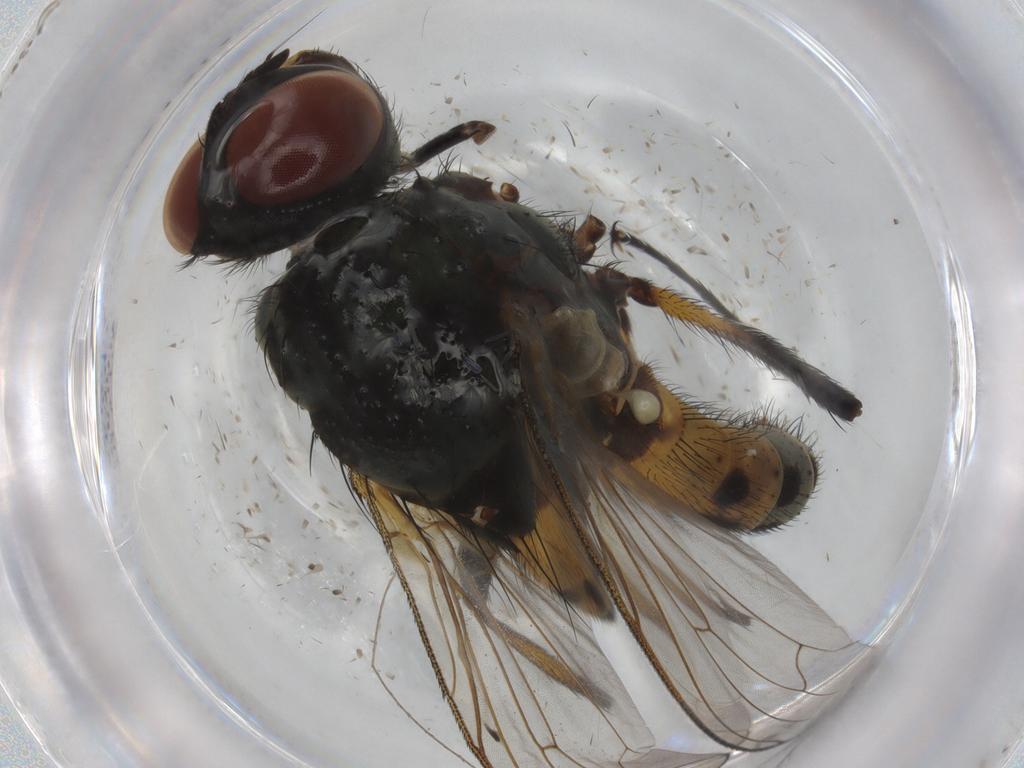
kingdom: Animalia
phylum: Arthropoda
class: Insecta
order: Diptera
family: Anthomyiidae
